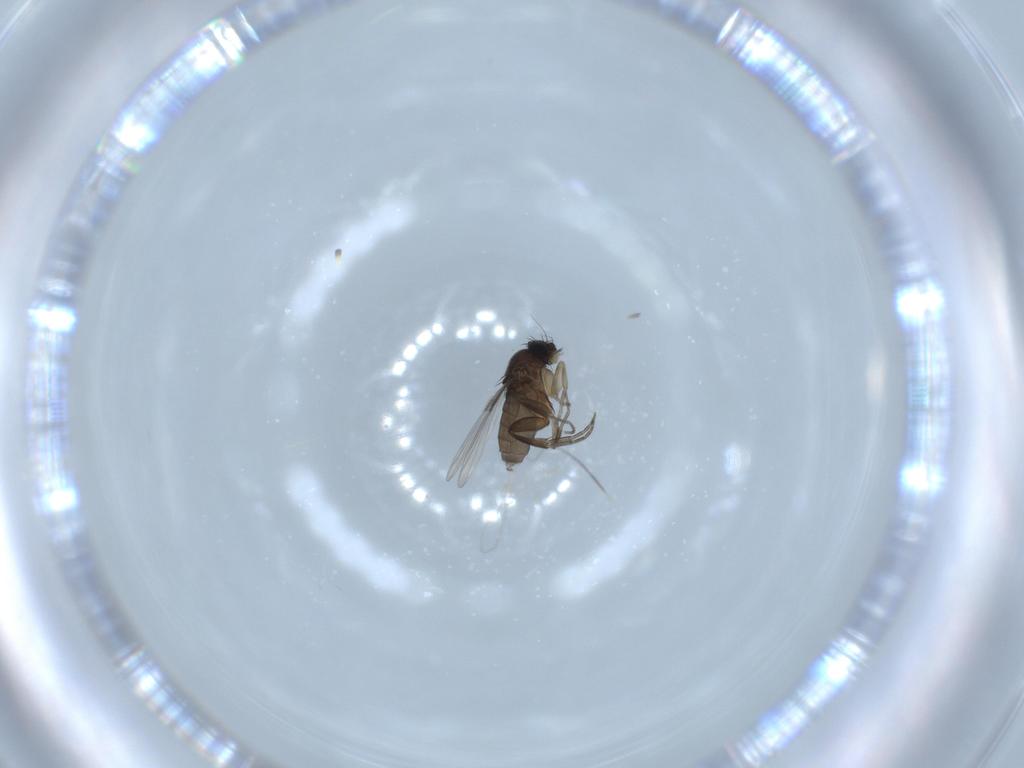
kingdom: Animalia
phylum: Arthropoda
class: Insecta
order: Diptera
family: Phoridae
